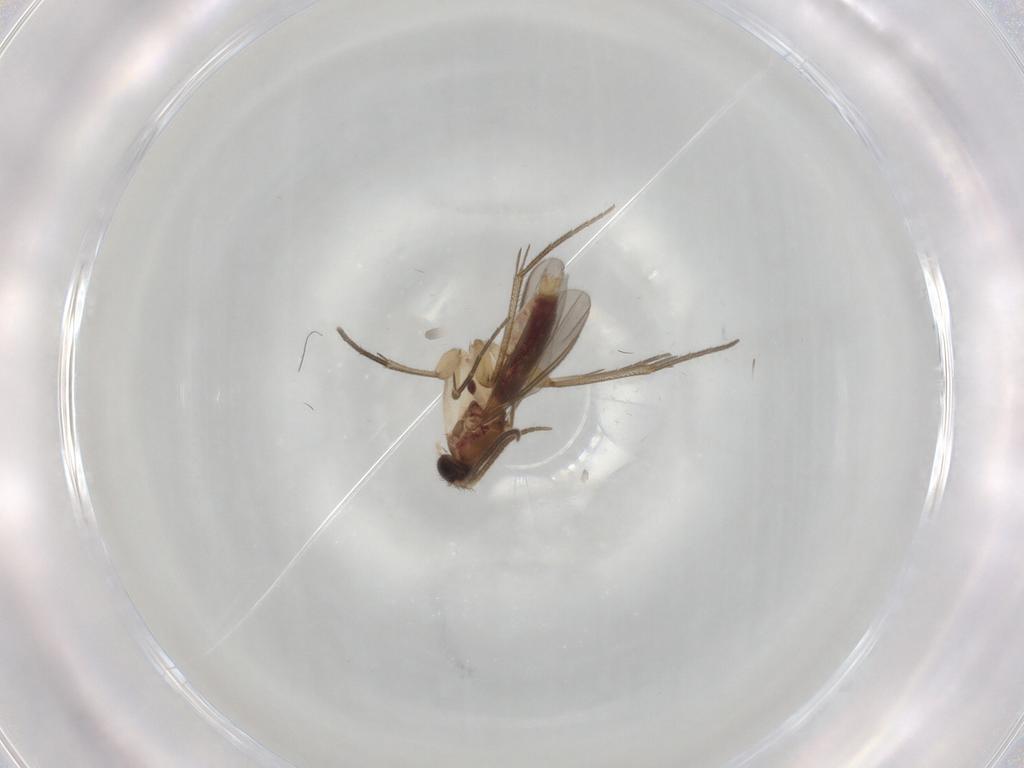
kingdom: Animalia
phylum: Arthropoda
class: Insecta
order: Diptera
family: Mycetophilidae
